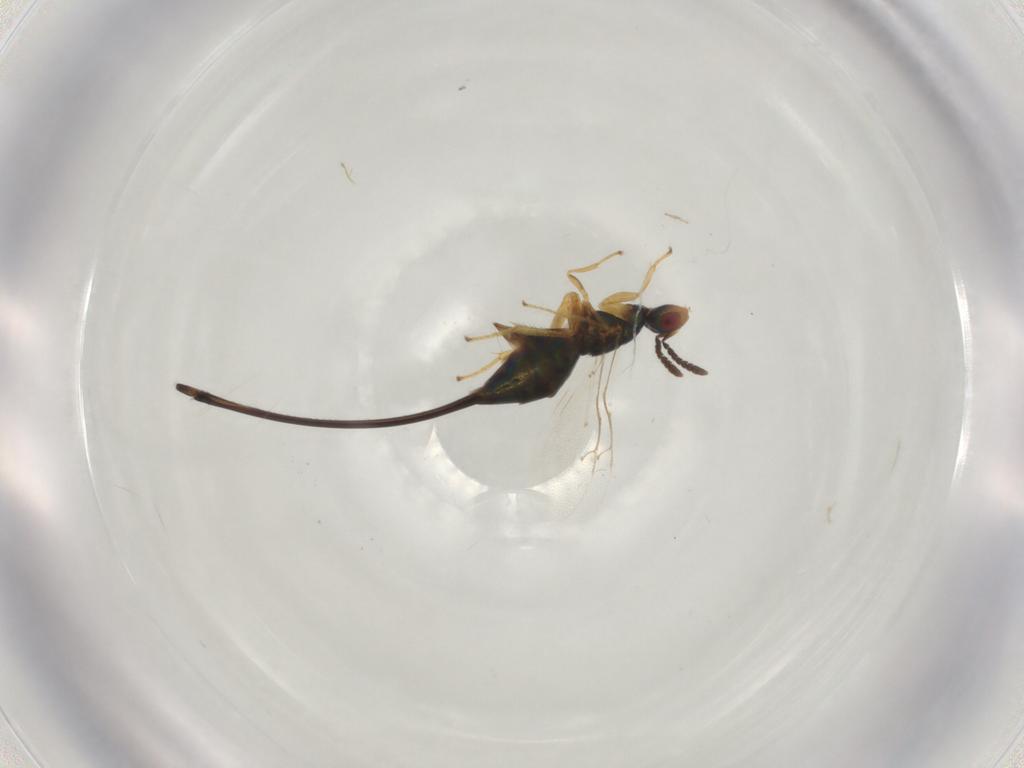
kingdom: Animalia
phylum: Arthropoda
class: Insecta
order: Hymenoptera
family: Pteromalidae
